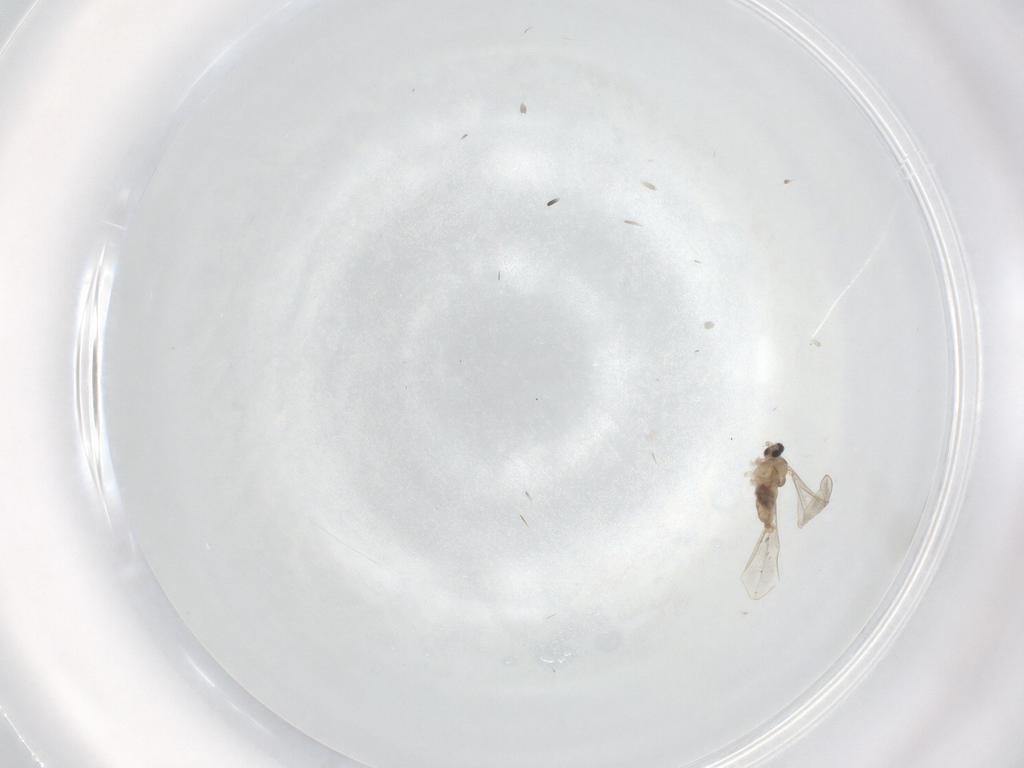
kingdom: Animalia
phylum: Arthropoda
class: Insecta
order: Diptera
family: Cecidomyiidae
